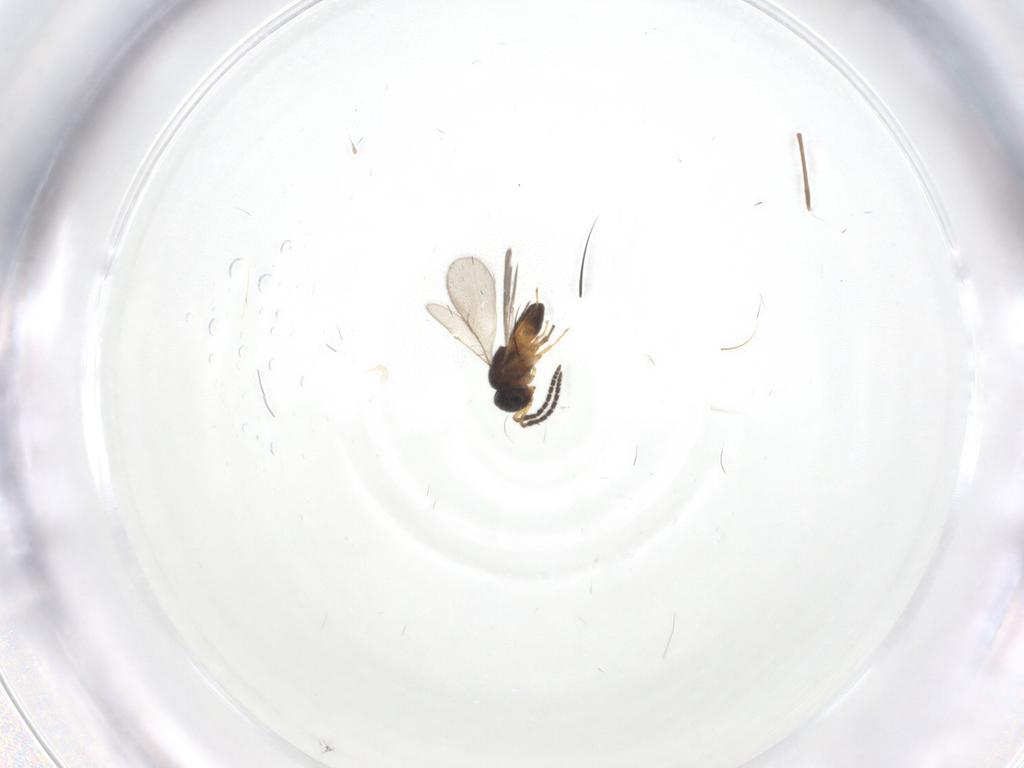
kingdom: Animalia
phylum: Arthropoda
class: Insecta
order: Hymenoptera
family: Scelionidae
